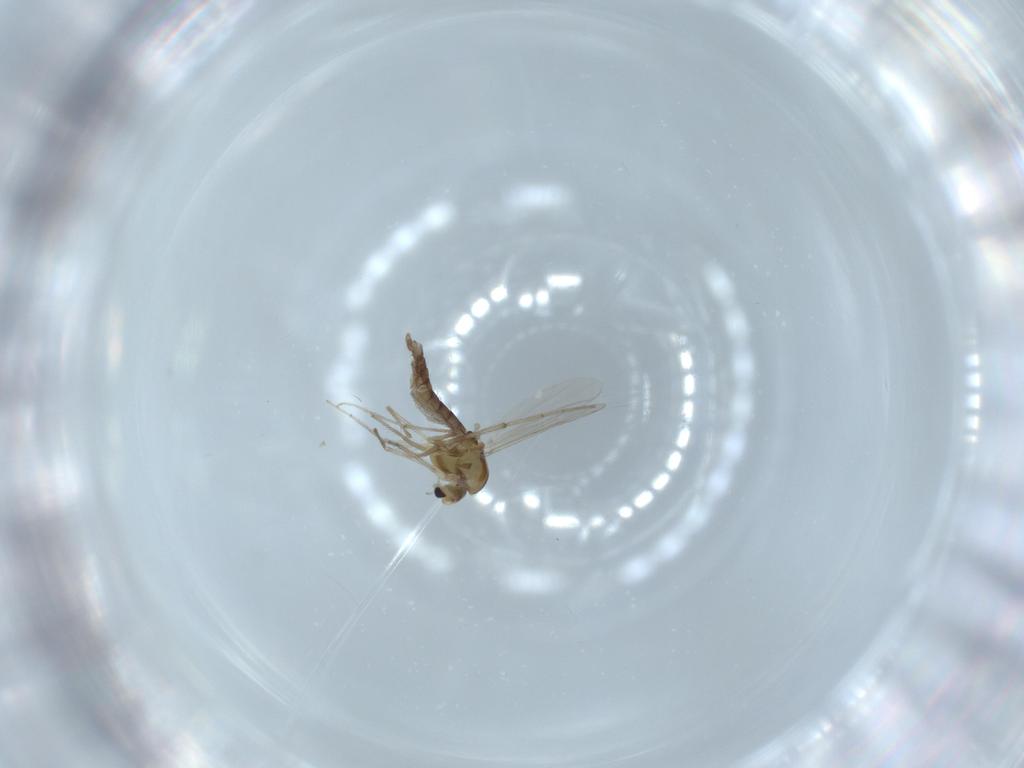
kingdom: Animalia
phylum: Arthropoda
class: Insecta
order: Diptera
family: Chironomidae
